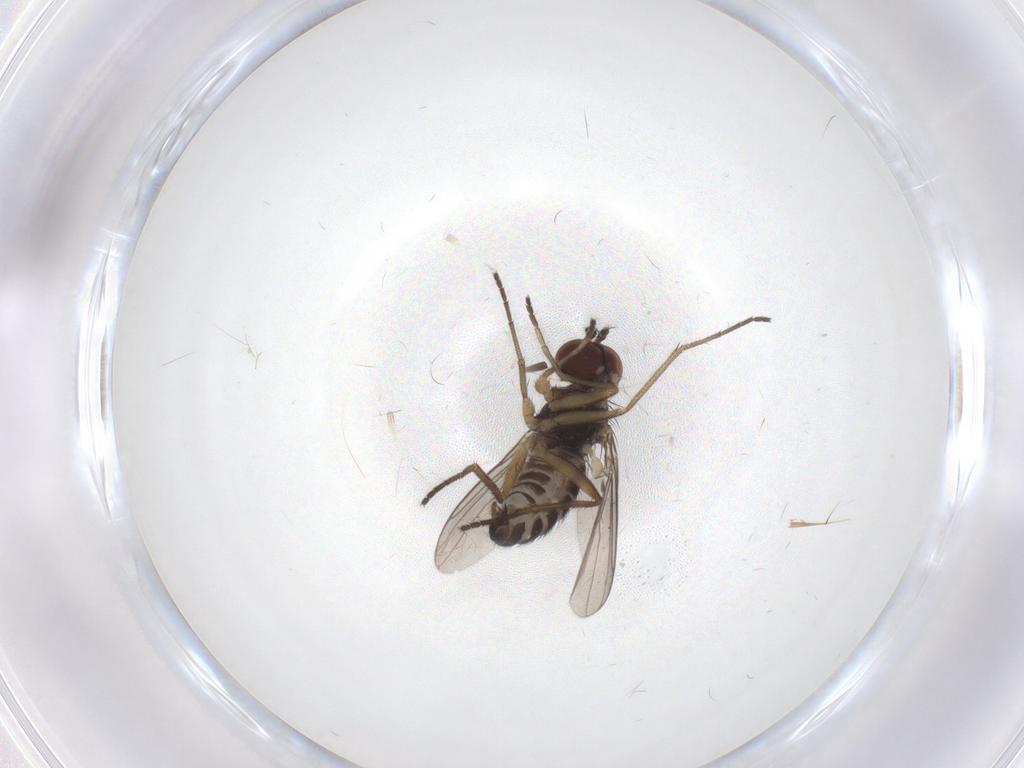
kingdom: Animalia
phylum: Arthropoda
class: Insecta
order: Diptera
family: Dolichopodidae
